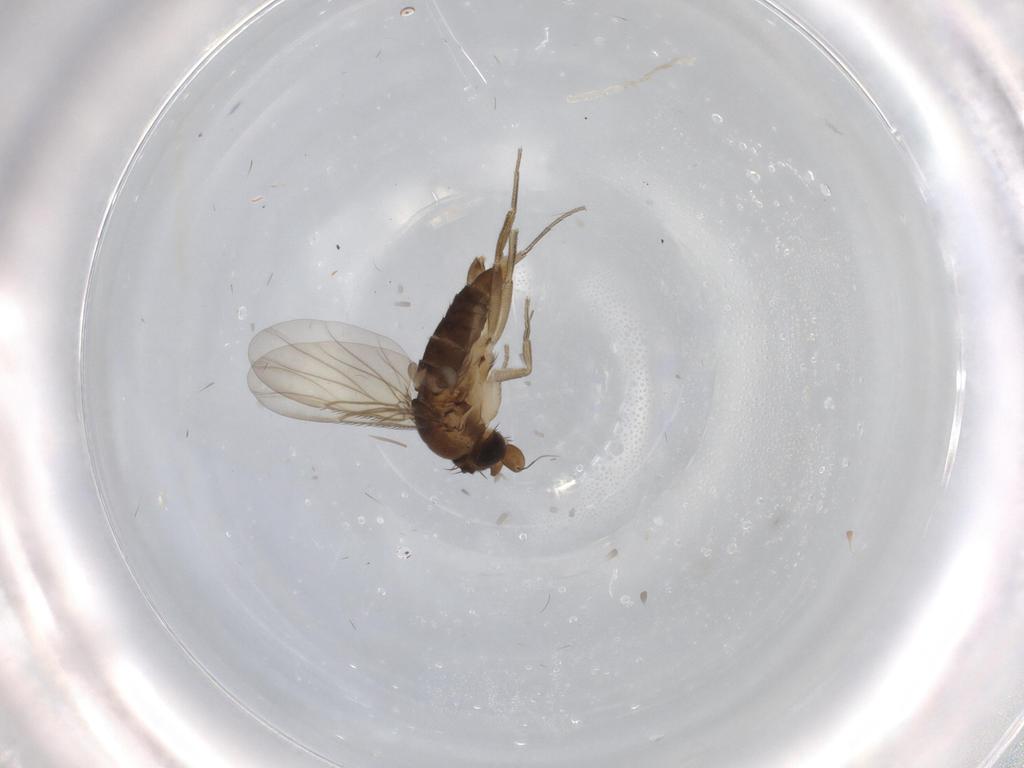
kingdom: Animalia
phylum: Arthropoda
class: Insecta
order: Diptera
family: Phoridae
